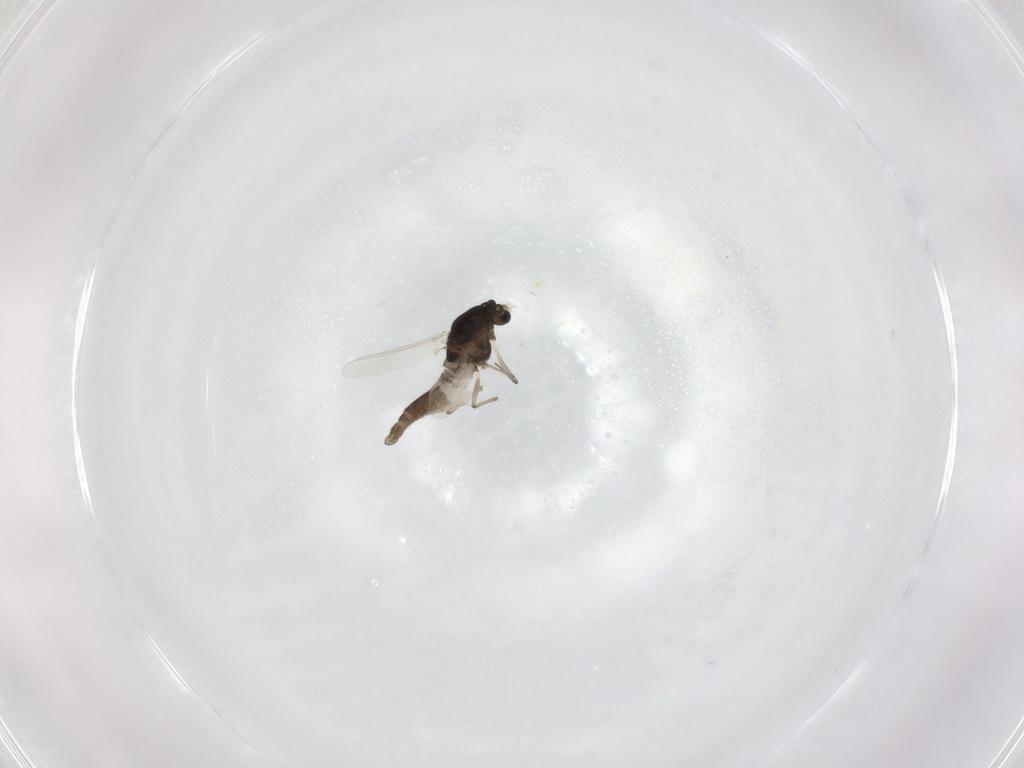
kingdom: Animalia
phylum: Arthropoda
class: Insecta
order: Diptera
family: Chironomidae
